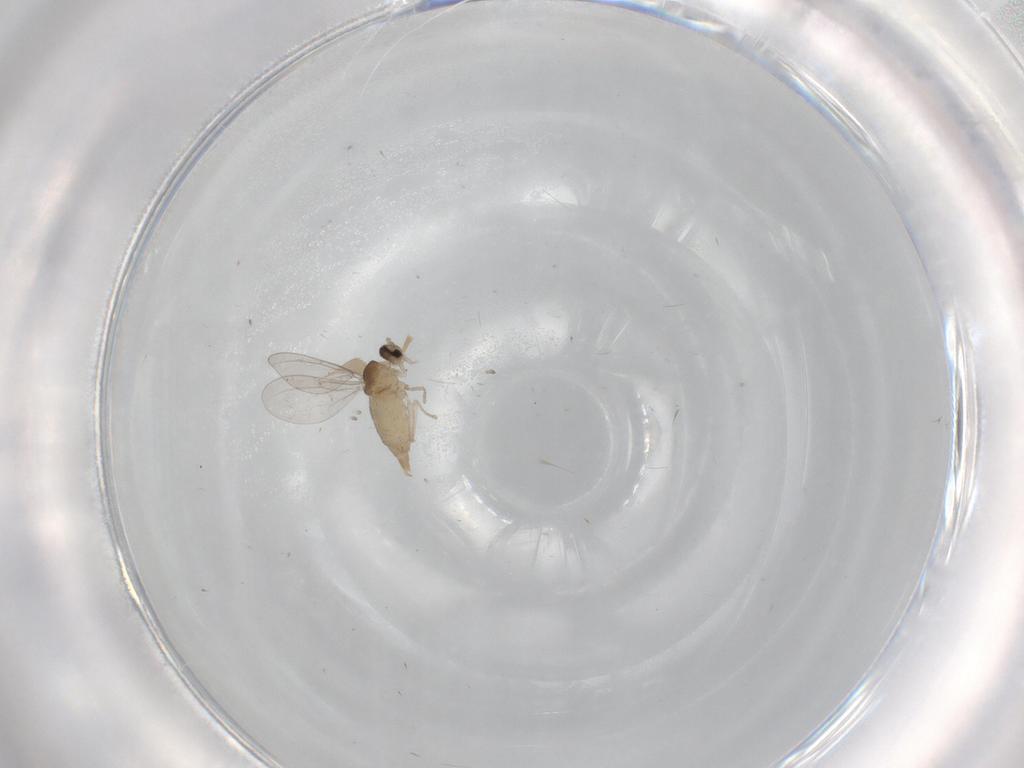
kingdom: Animalia
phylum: Arthropoda
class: Insecta
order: Diptera
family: Cecidomyiidae
